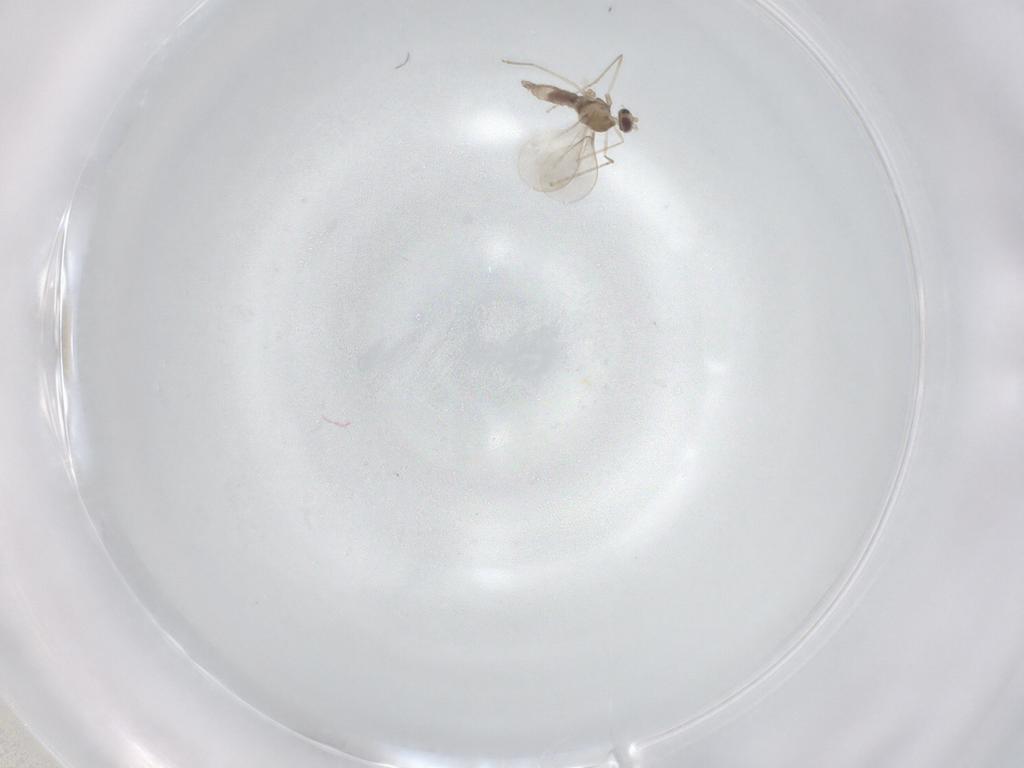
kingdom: Animalia
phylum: Arthropoda
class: Insecta
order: Diptera
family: Cecidomyiidae
